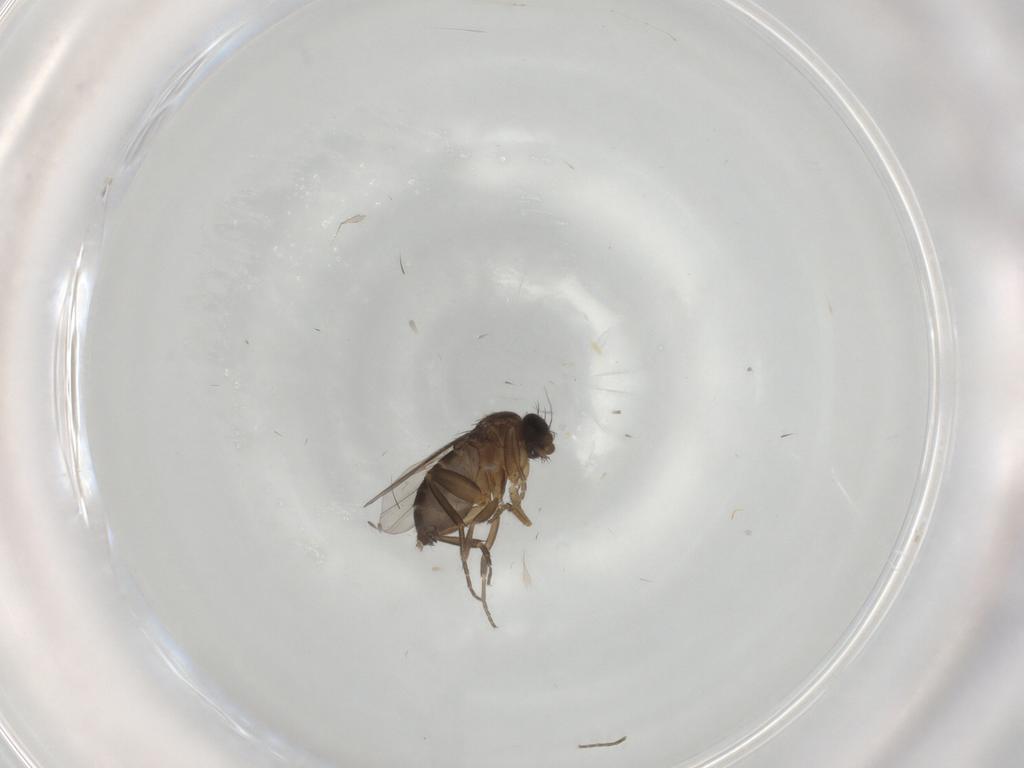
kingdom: Animalia
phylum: Arthropoda
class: Insecta
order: Diptera
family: Phoridae
